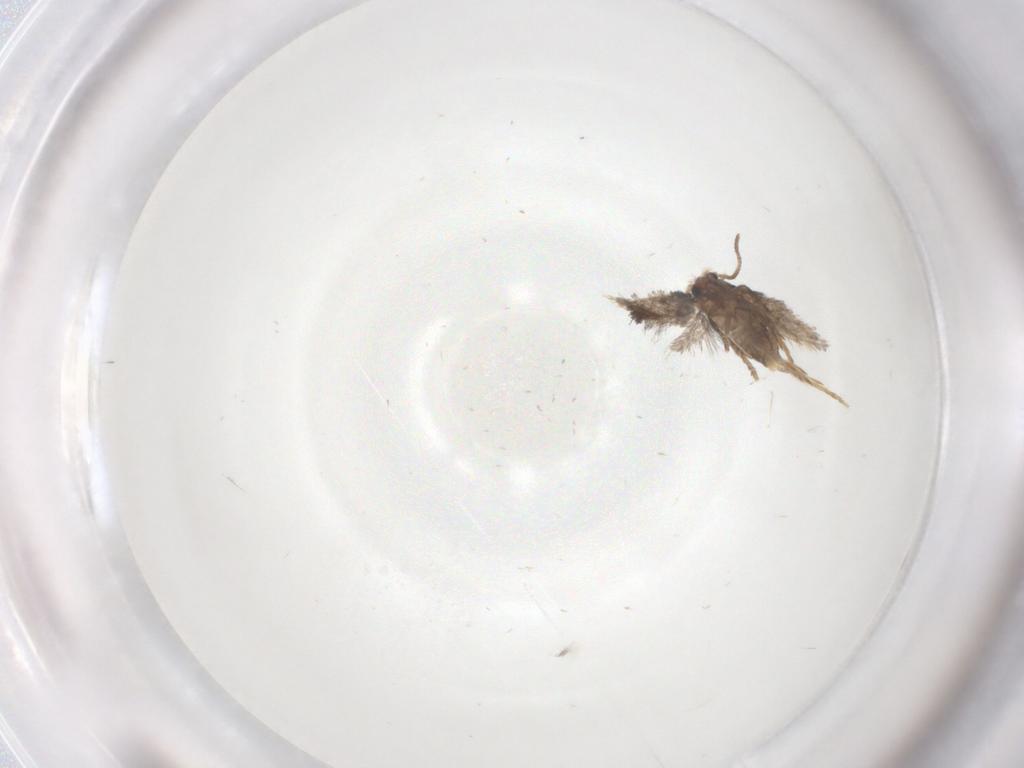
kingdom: Animalia
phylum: Arthropoda
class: Insecta
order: Lepidoptera
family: Nepticulidae
